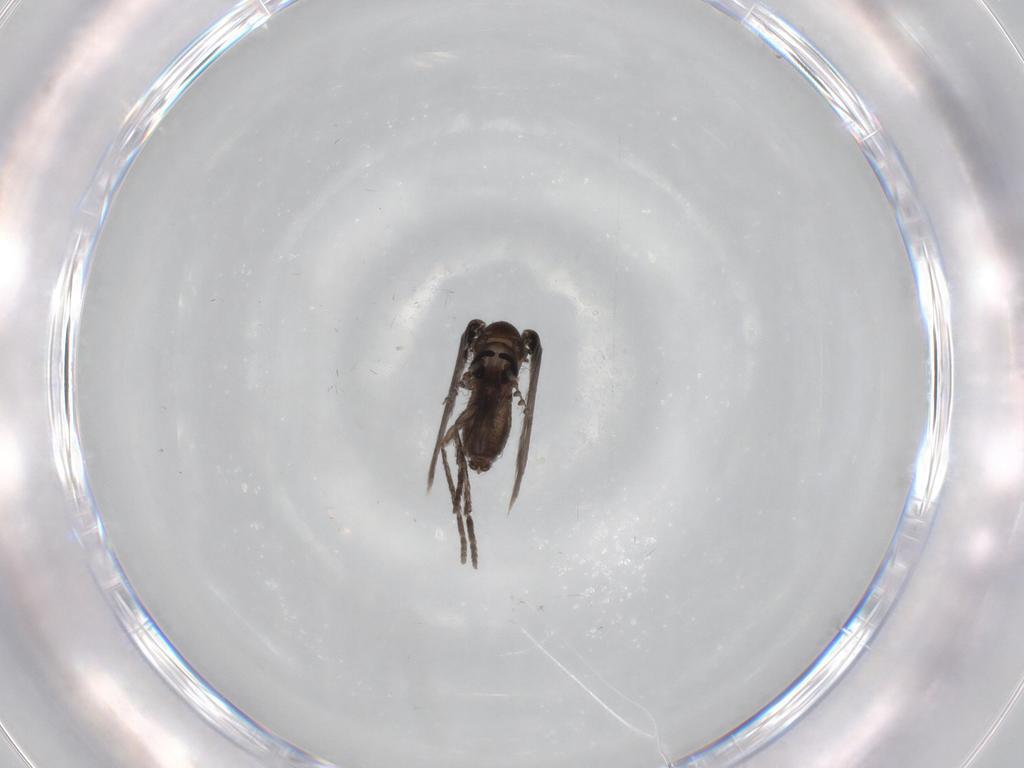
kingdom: Animalia
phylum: Arthropoda
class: Insecta
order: Diptera
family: Psychodidae
